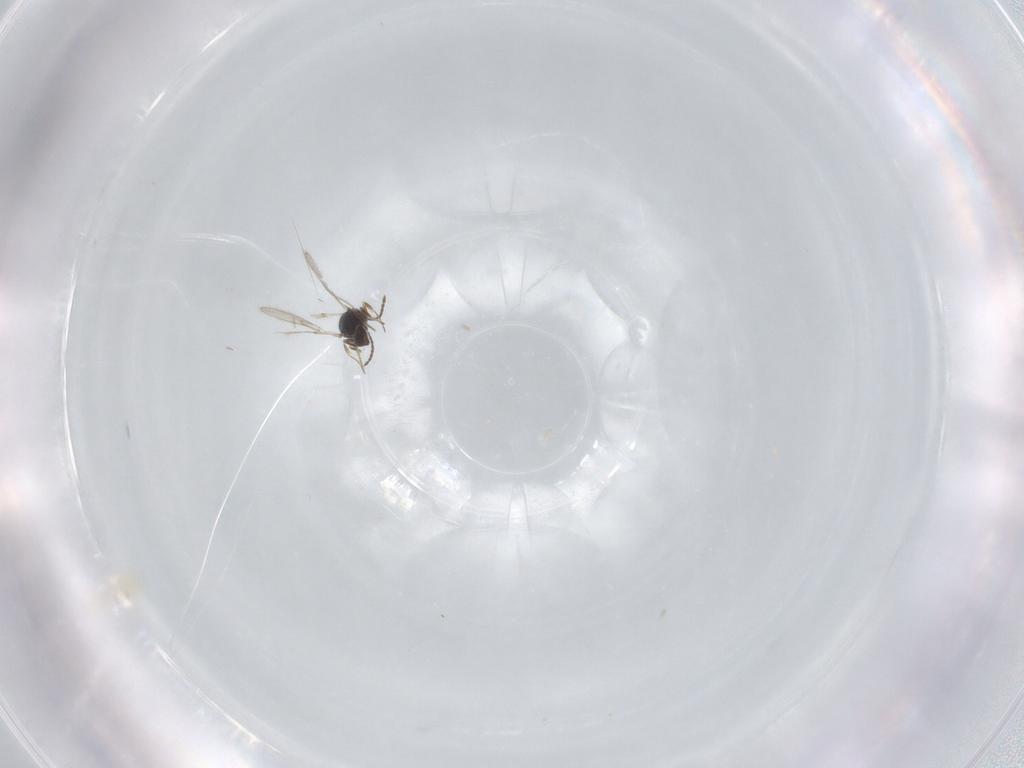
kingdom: Animalia
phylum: Arthropoda
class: Insecta
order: Hymenoptera
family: Scelionidae
